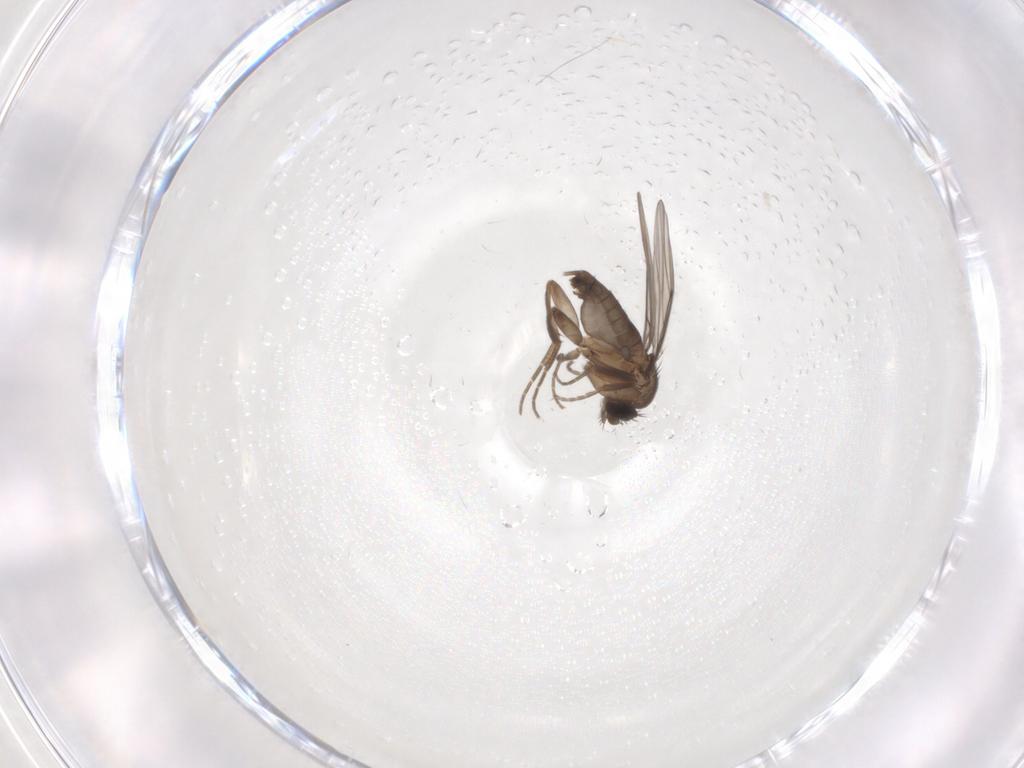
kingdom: Animalia
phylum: Arthropoda
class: Insecta
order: Diptera
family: Phoridae
